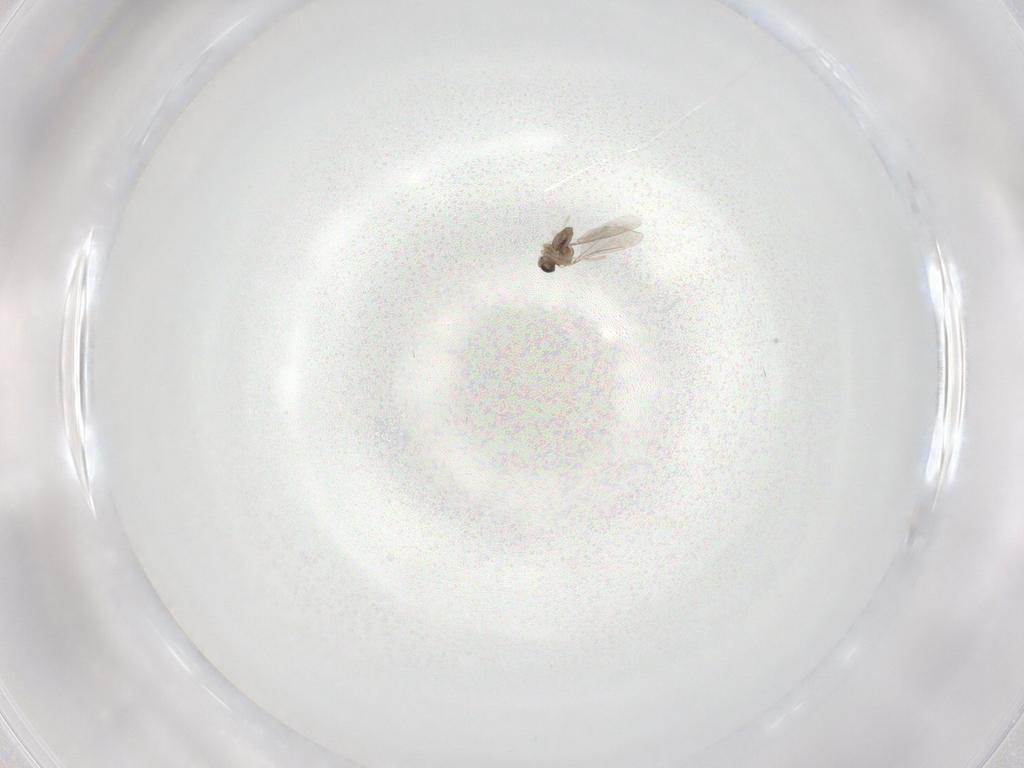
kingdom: Animalia
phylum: Arthropoda
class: Insecta
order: Diptera
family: Cecidomyiidae
